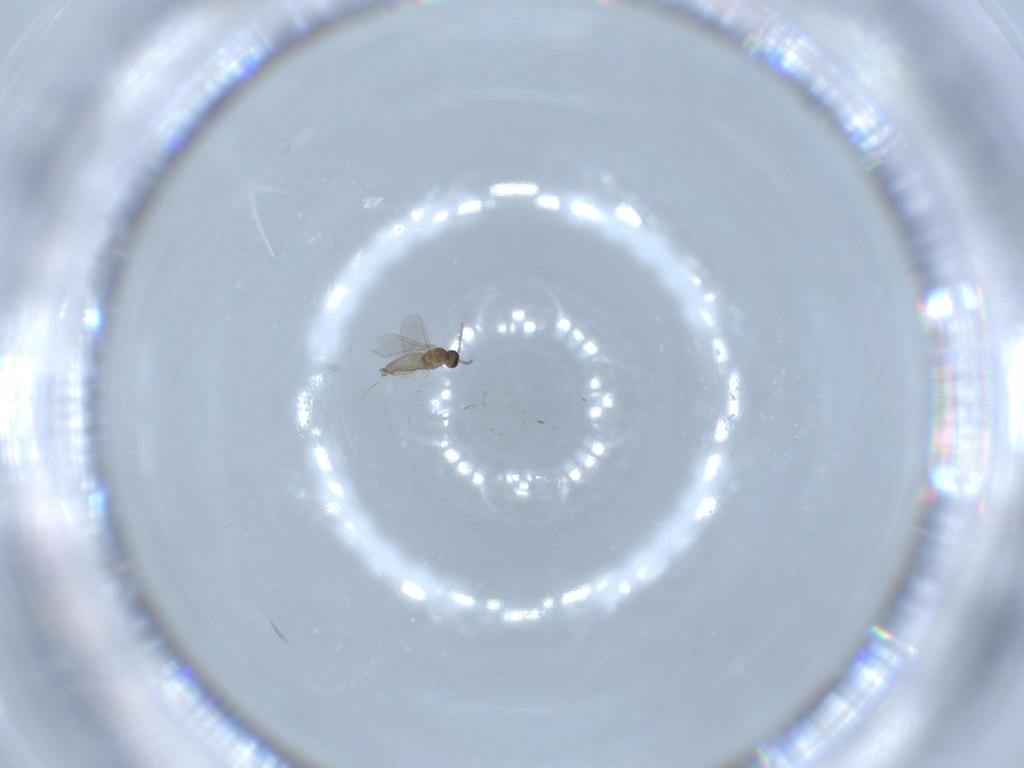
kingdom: Animalia
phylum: Arthropoda
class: Insecta
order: Diptera
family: Cecidomyiidae
